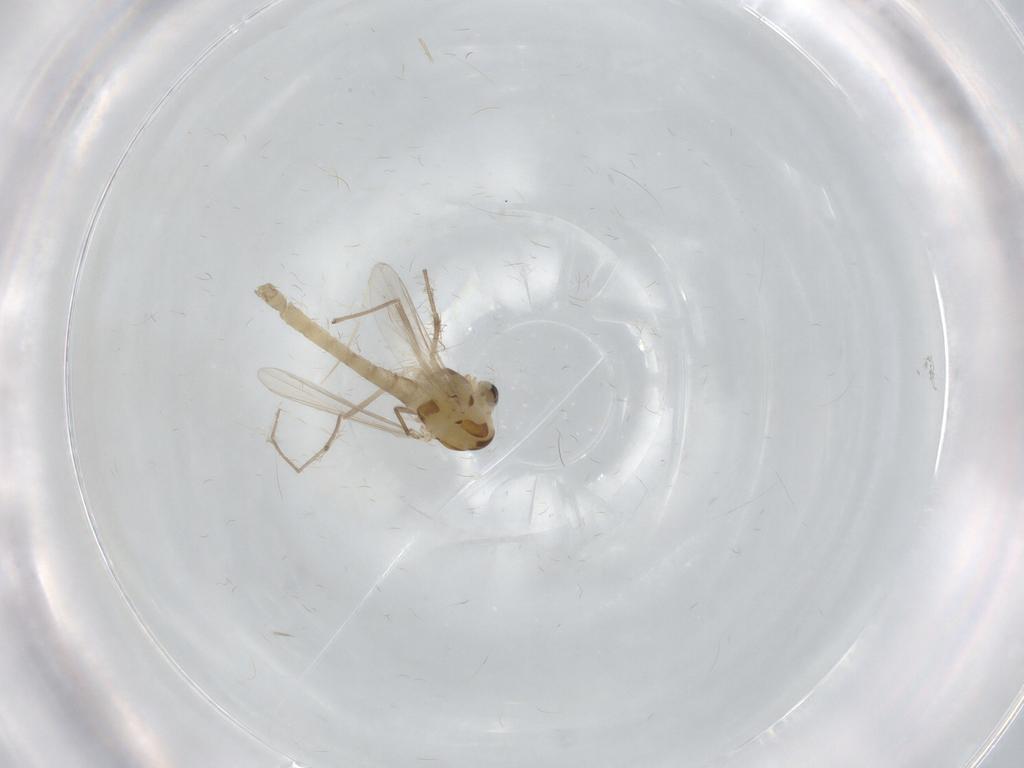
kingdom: Animalia
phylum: Arthropoda
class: Insecta
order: Diptera
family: Chironomidae
